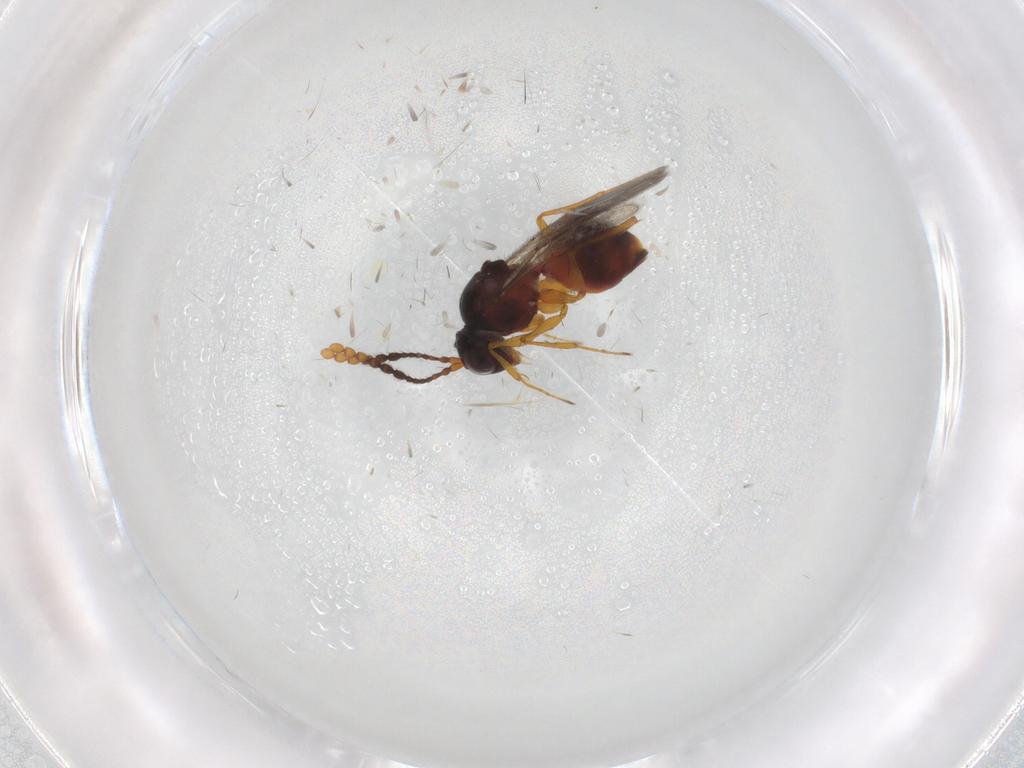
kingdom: Animalia
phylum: Arthropoda
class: Insecta
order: Hymenoptera
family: Figitidae
